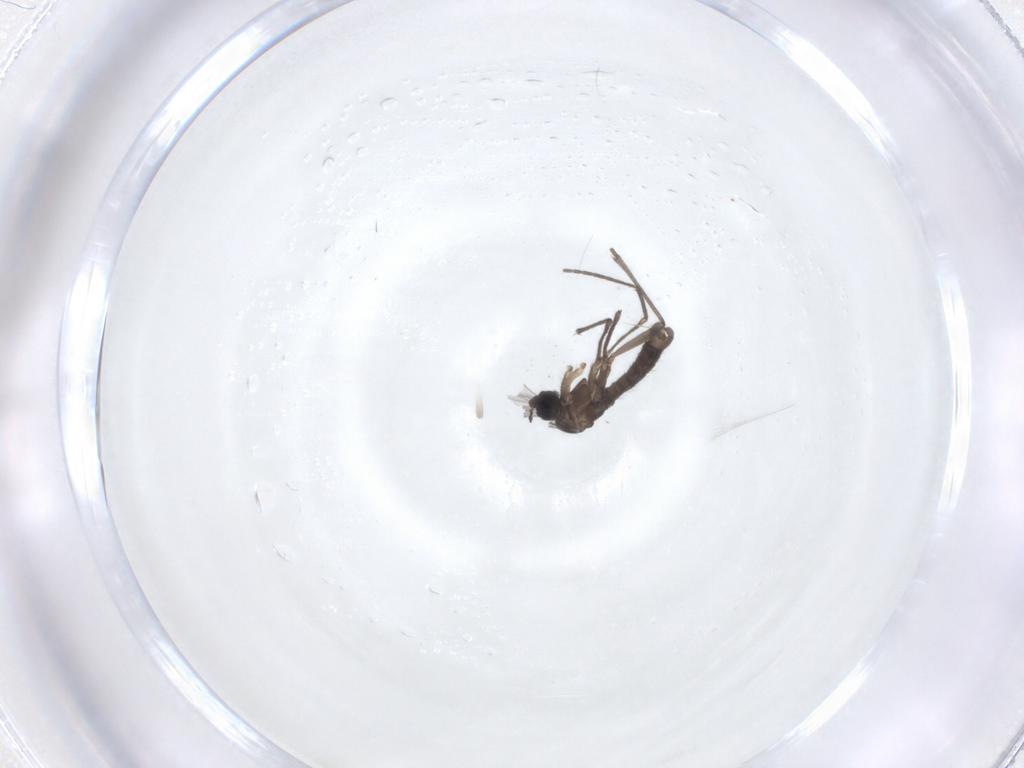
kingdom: Animalia
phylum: Arthropoda
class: Insecta
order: Diptera
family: Sciaridae
